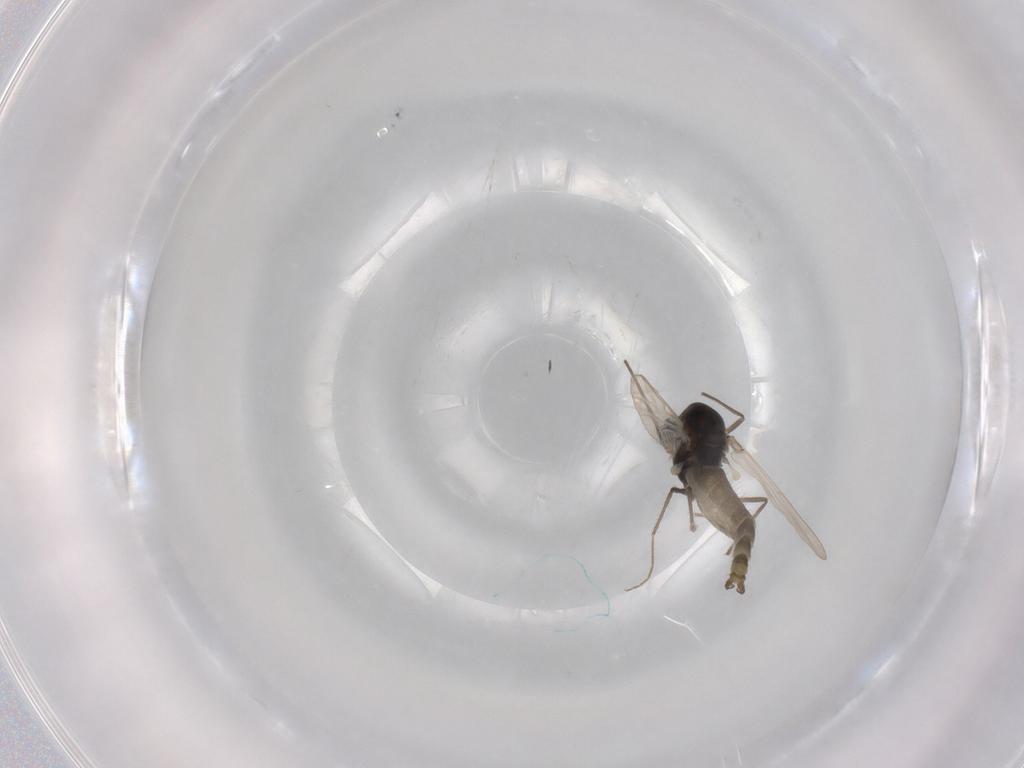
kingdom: Animalia
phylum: Arthropoda
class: Insecta
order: Diptera
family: Chironomidae
